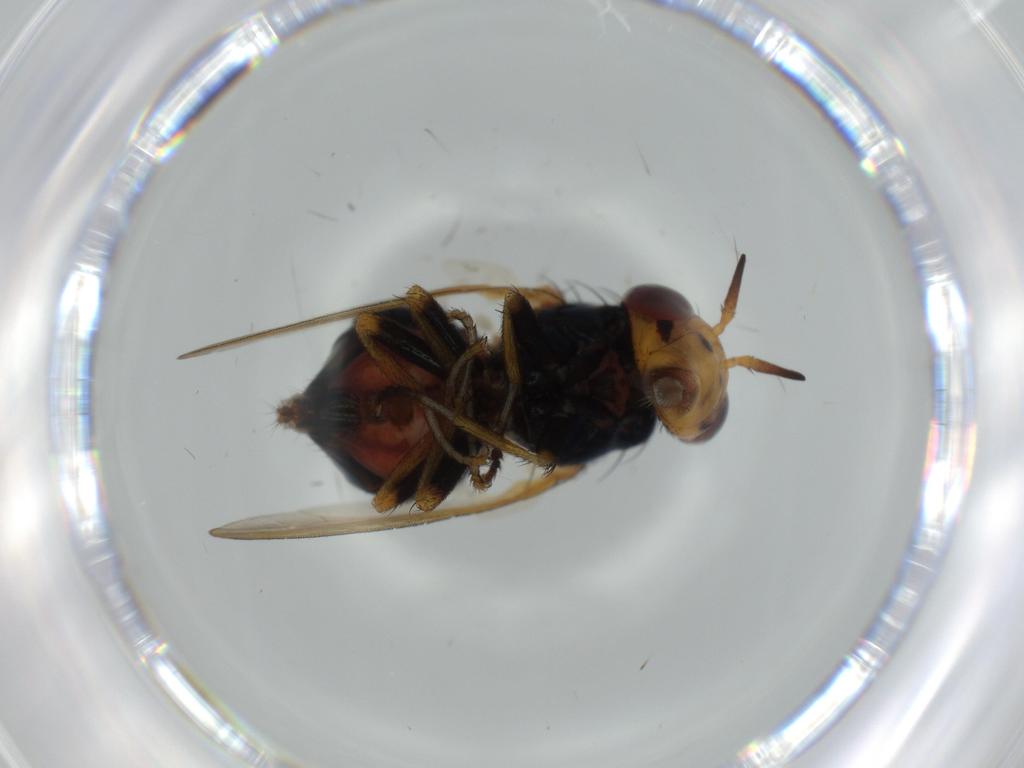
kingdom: Animalia
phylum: Arthropoda
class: Insecta
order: Diptera
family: Lauxaniidae
